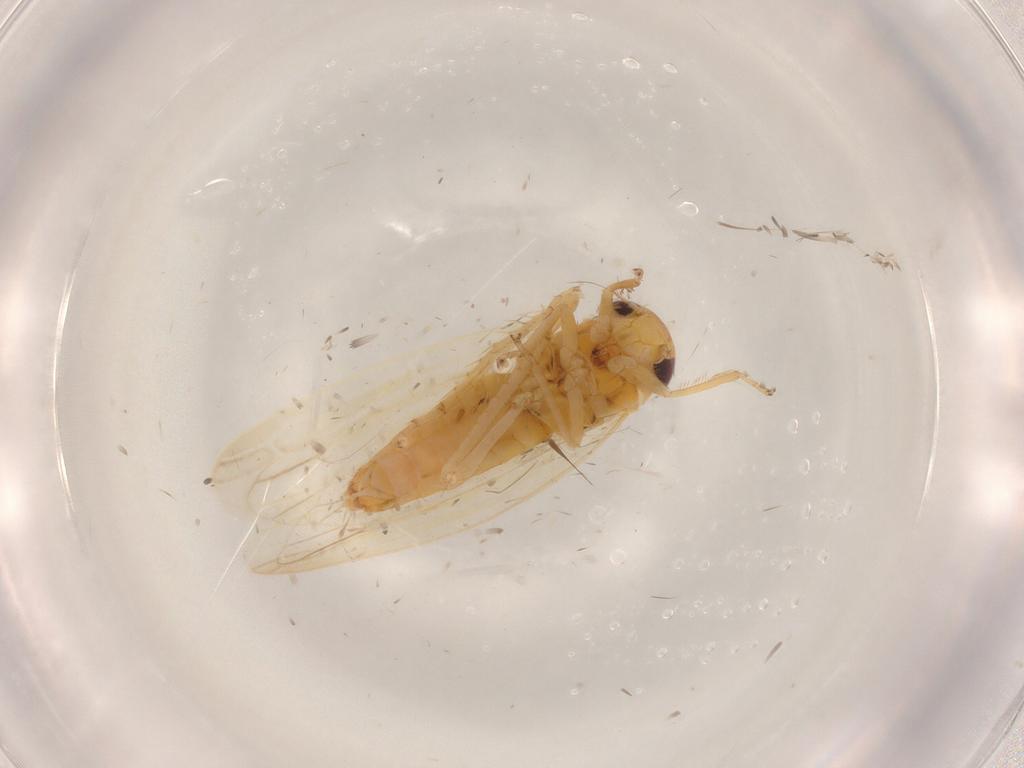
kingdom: Animalia
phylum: Arthropoda
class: Insecta
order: Hemiptera
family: Cicadellidae
